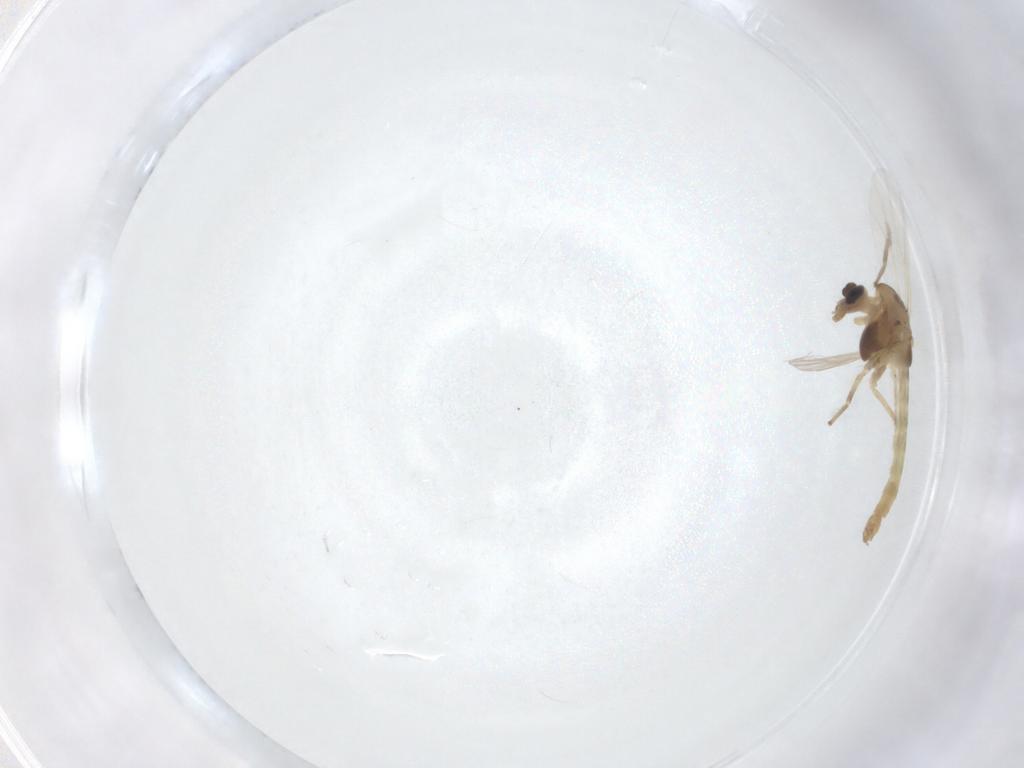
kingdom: Animalia
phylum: Arthropoda
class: Insecta
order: Diptera
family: Chironomidae
